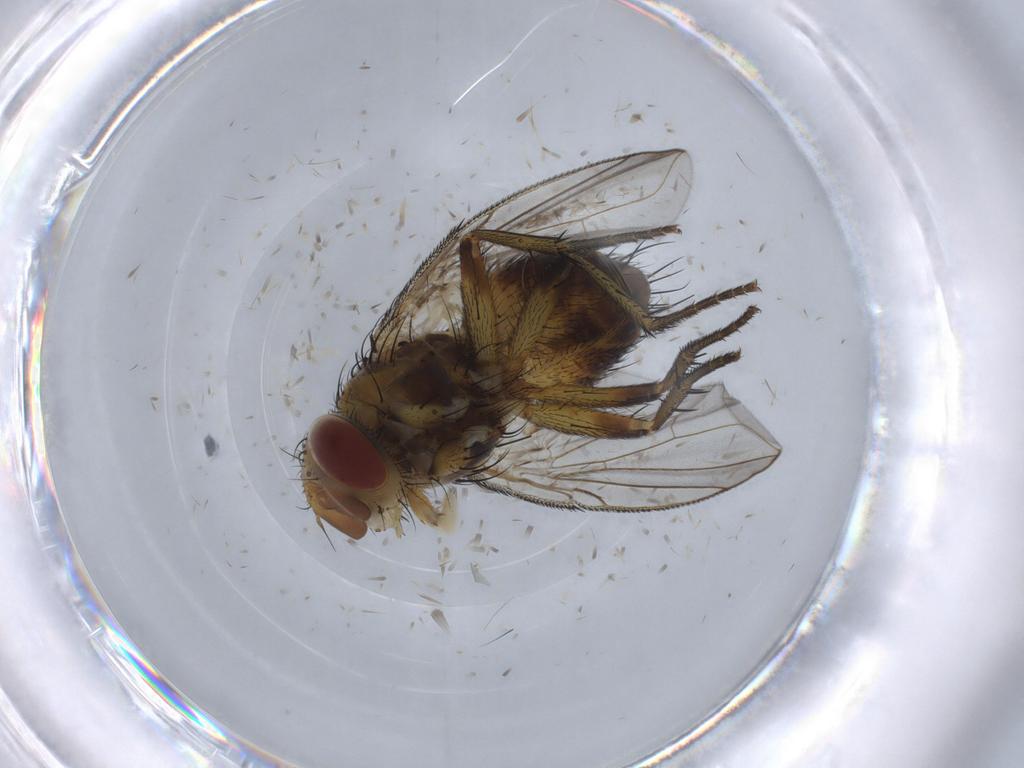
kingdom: Animalia
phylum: Arthropoda
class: Insecta
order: Diptera
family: Cecidomyiidae
